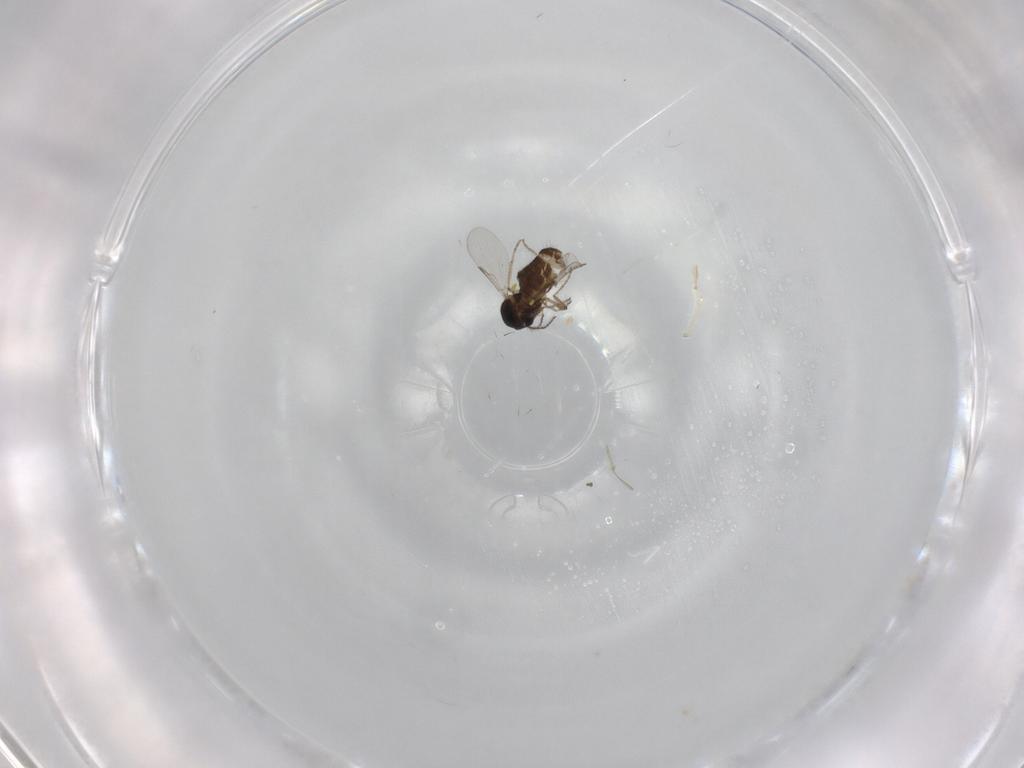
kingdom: Animalia
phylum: Arthropoda
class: Insecta
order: Diptera
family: Ceratopogonidae
